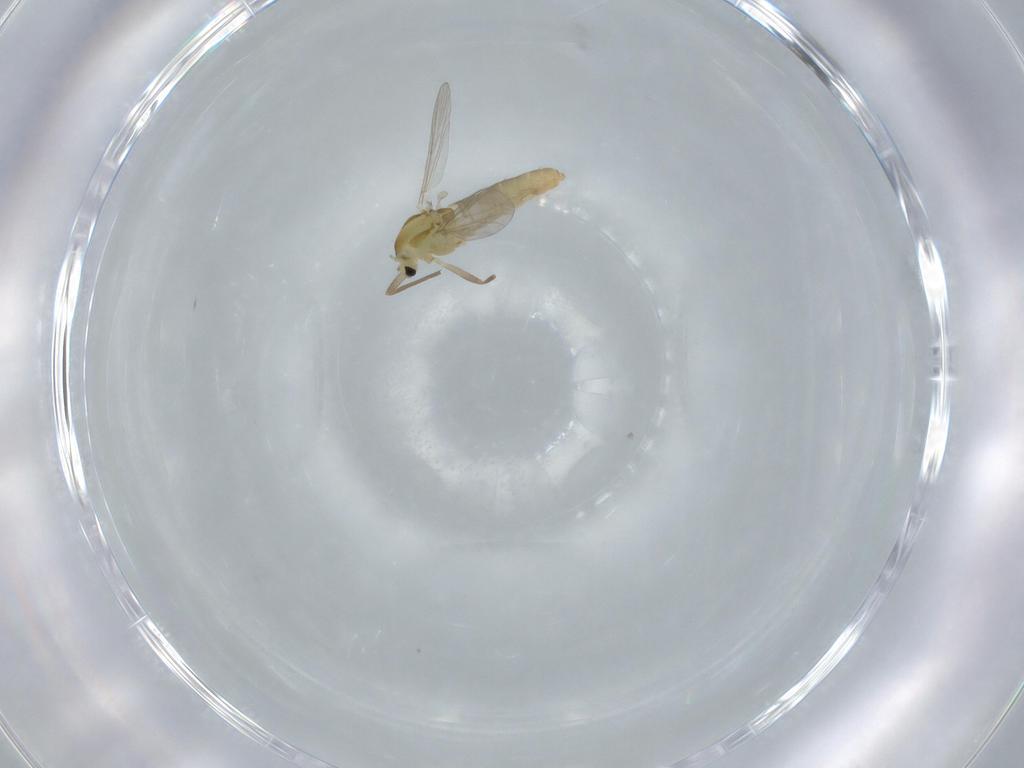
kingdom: Animalia
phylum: Arthropoda
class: Insecta
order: Diptera
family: Chironomidae
